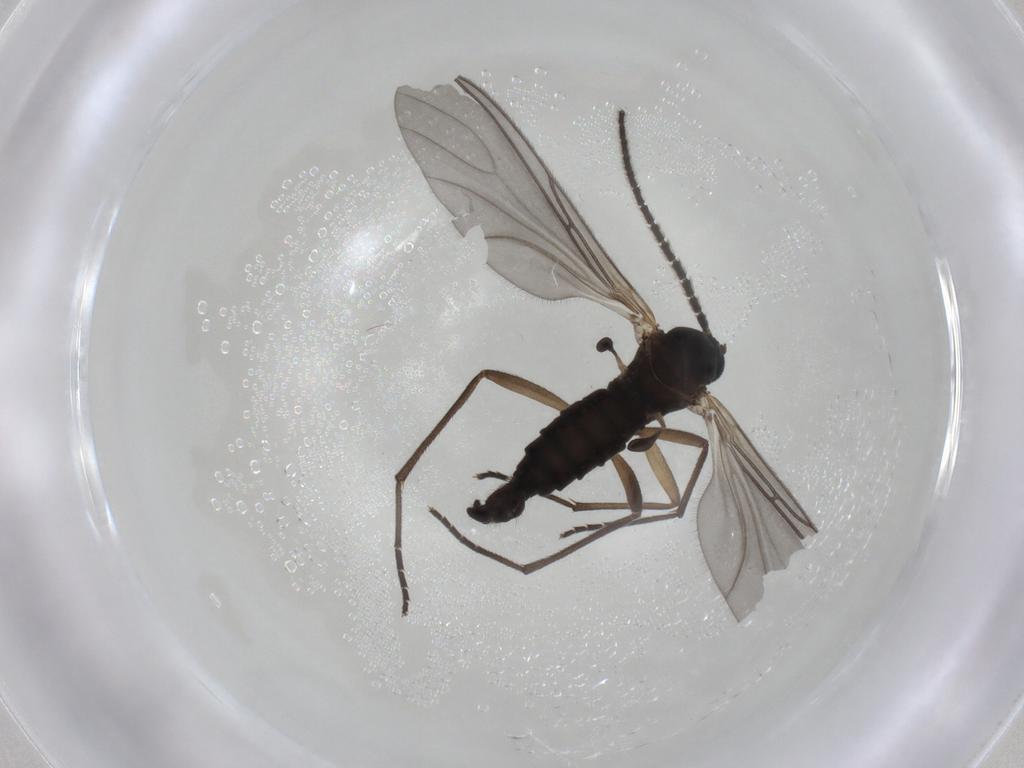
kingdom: Animalia
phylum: Arthropoda
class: Insecta
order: Diptera
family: Sciaridae
